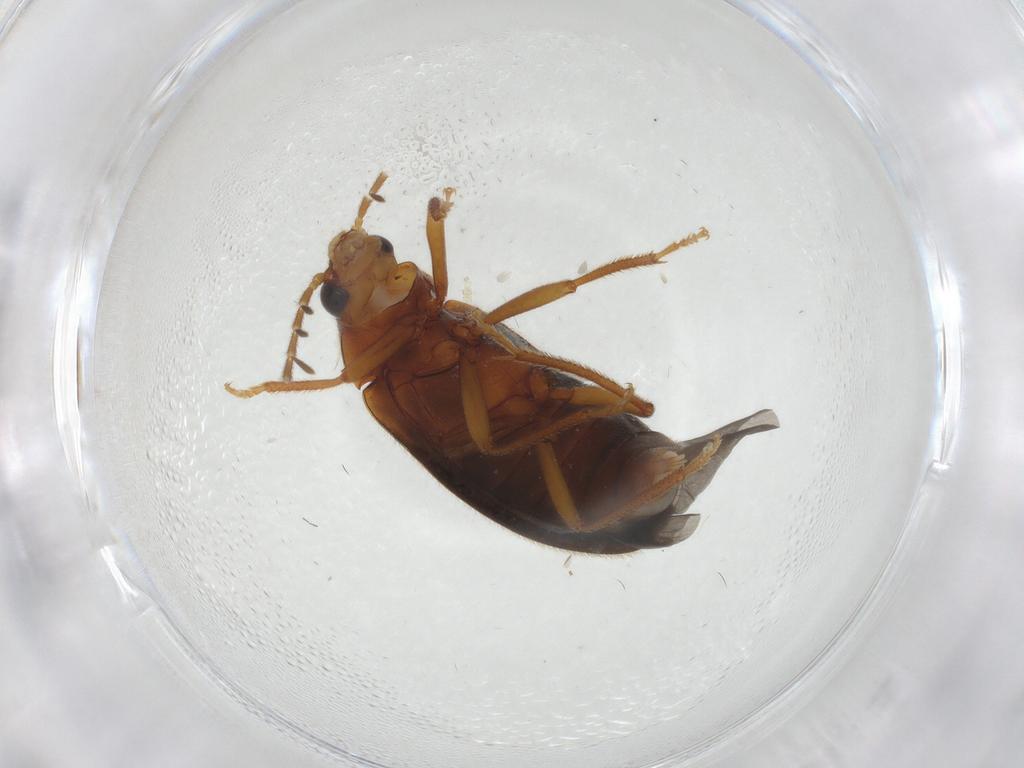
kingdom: Animalia
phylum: Arthropoda
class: Insecta
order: Coleoptera
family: Ptilodactylidae
